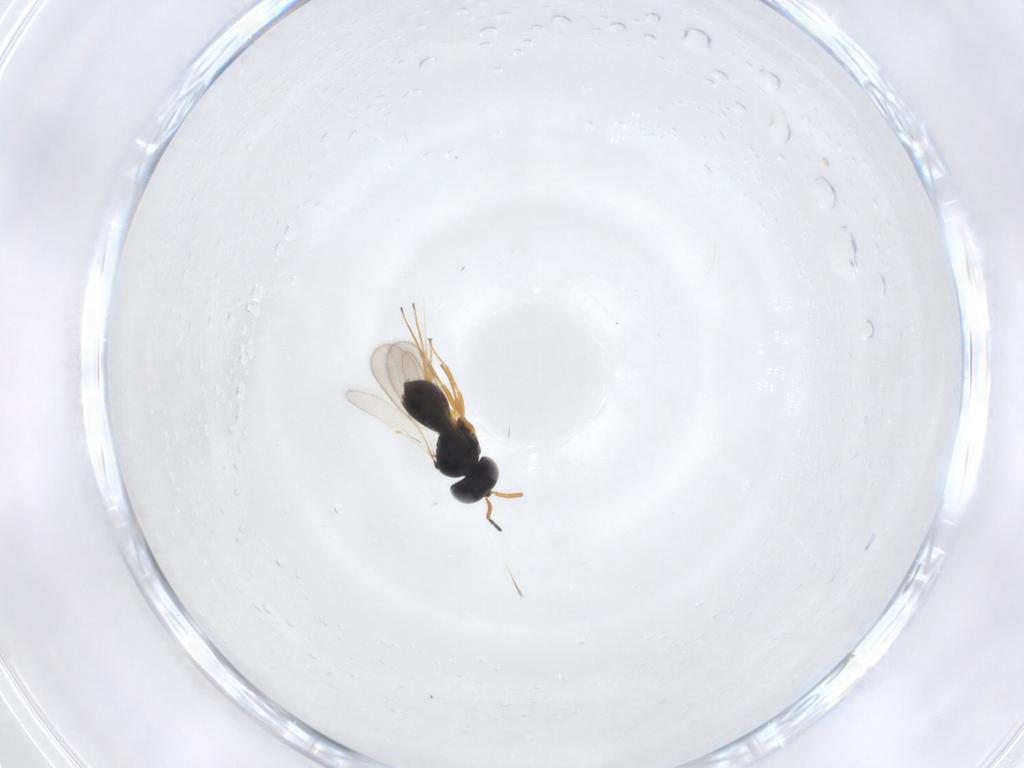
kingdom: Animalia
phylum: Arthropoda
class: Insecta
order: Hymenoptera
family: Scelionidae
